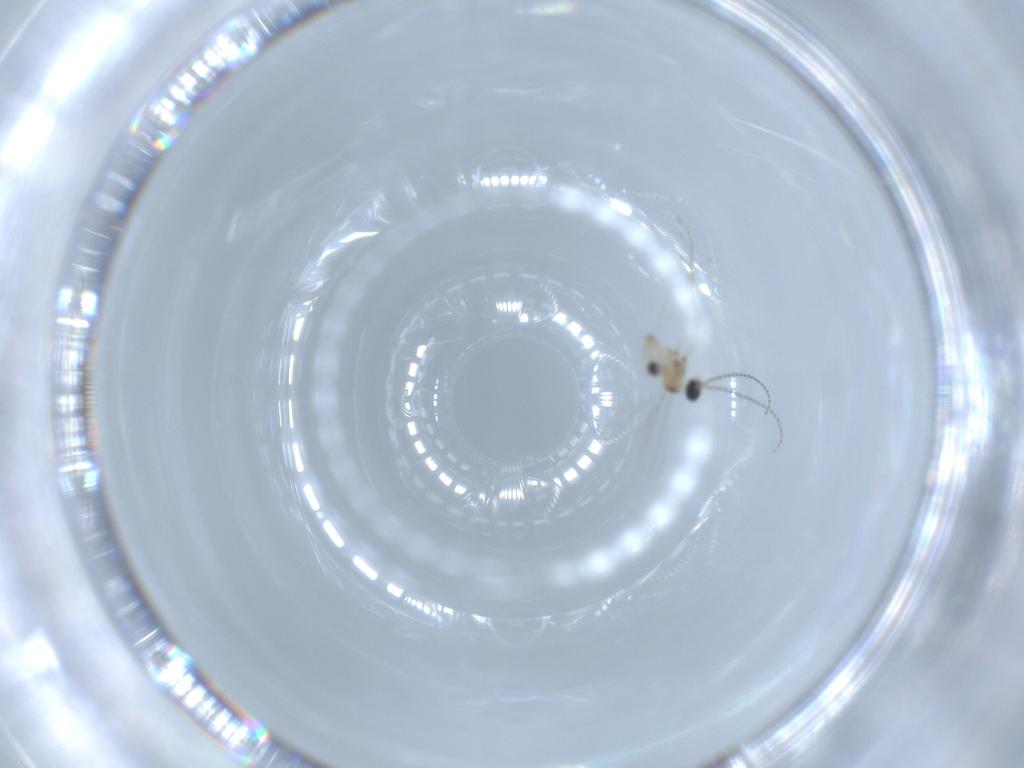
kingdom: Animalia
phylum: Arthropoda
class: Insecta
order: Diptera
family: Cecidomyiidae
